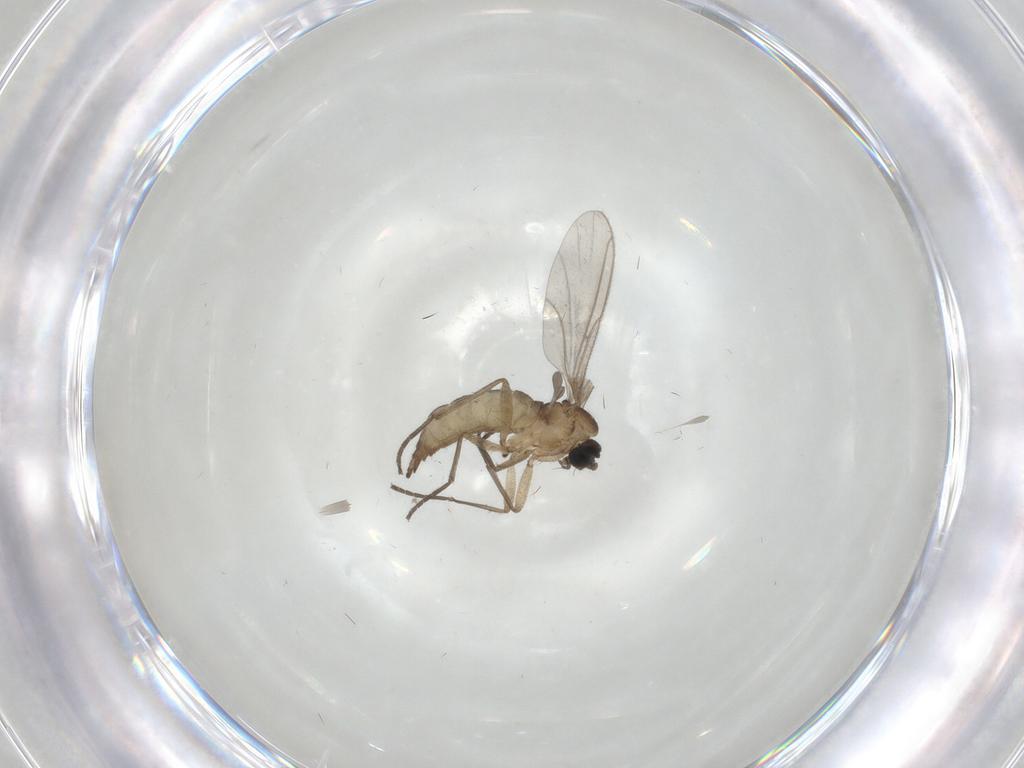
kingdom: Animalia
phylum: Arthropoda
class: Insecta
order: Diptera
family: Sciaridae
